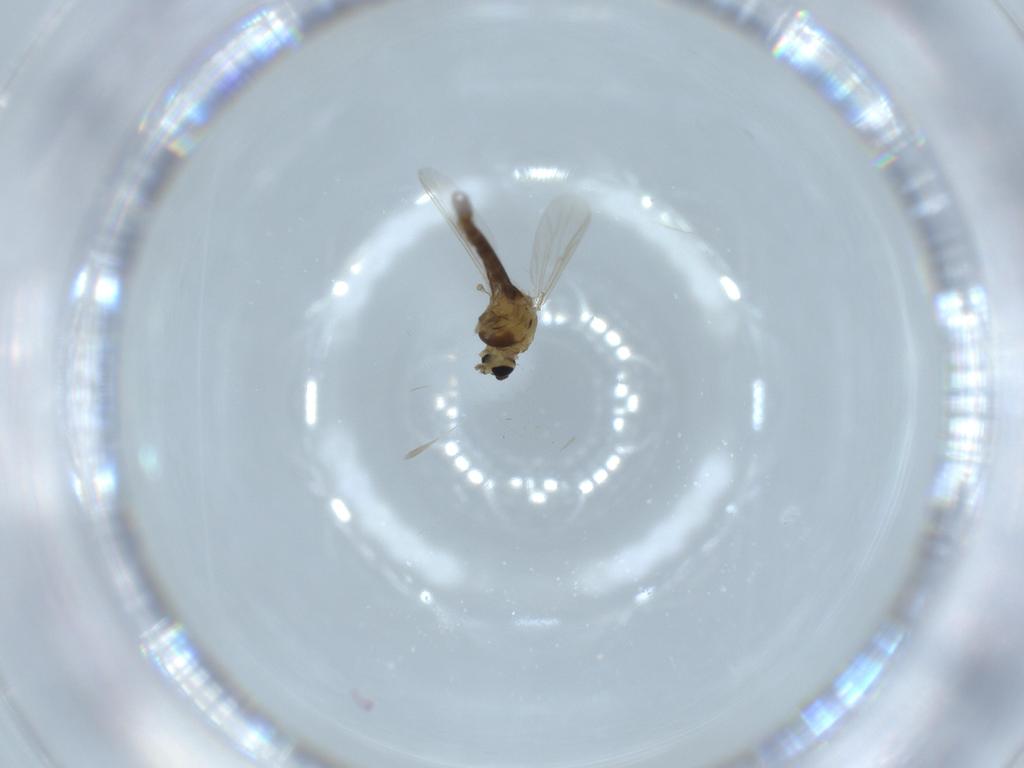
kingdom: Animalia
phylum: Arthropoda
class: Insecta
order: Diptera
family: Chironomidae
